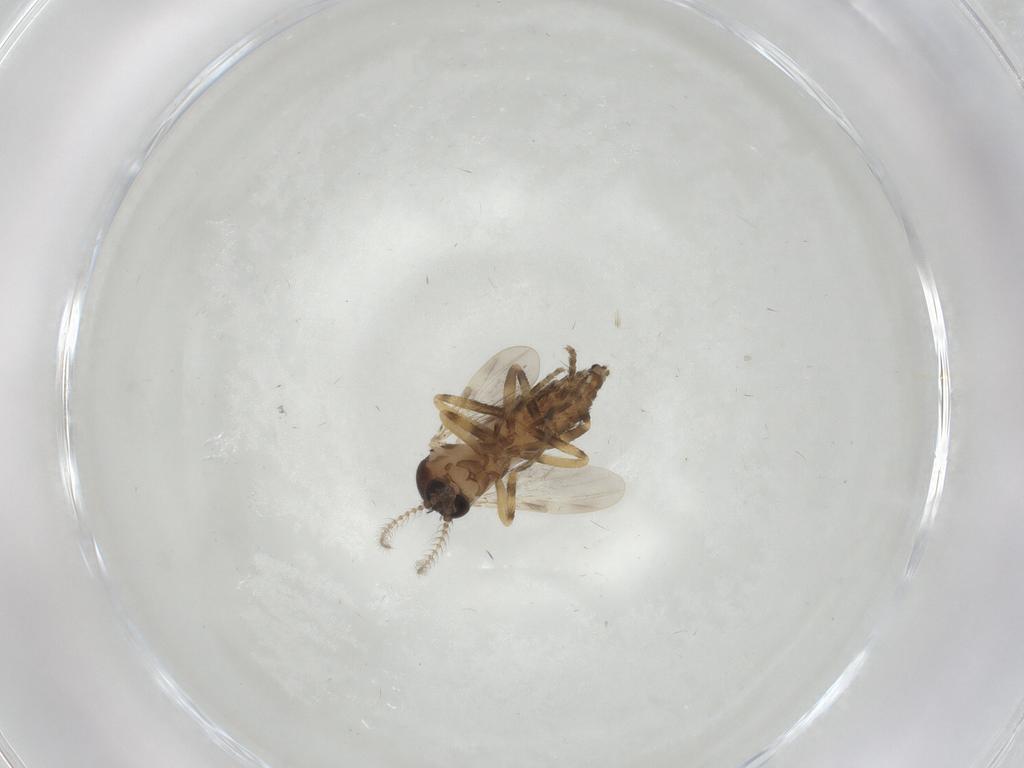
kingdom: Animalia
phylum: Arthropoda
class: Insecta
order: Diptera
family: Ceratopogonidae
